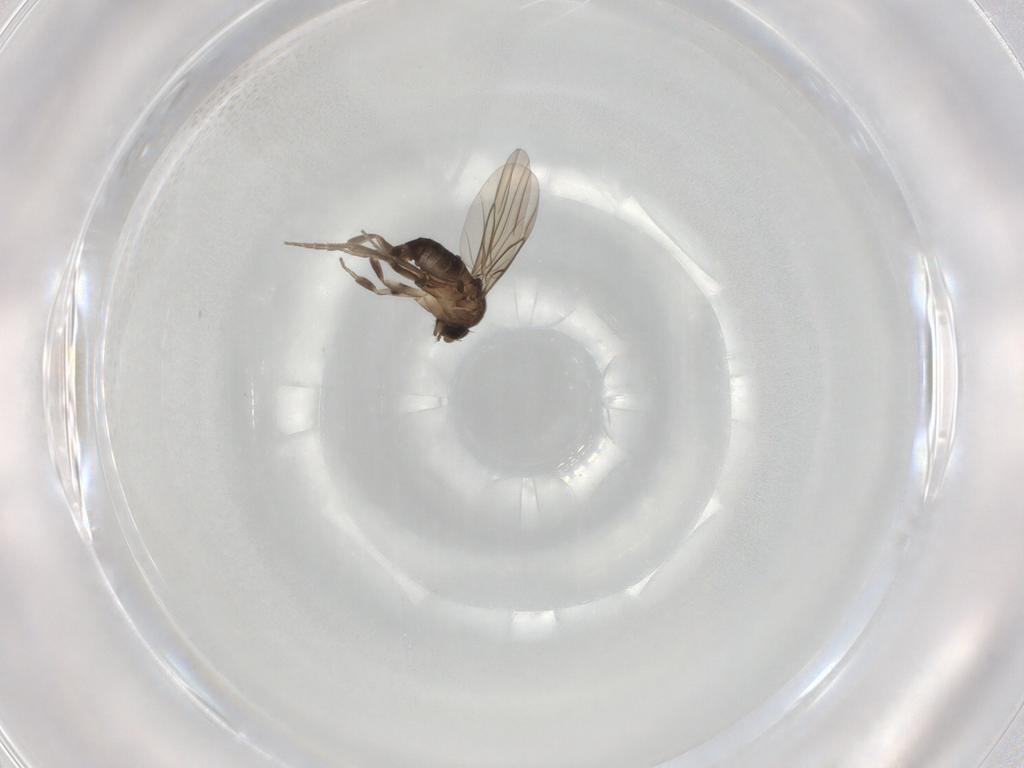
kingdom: Animalia
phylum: Arthropoda
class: Insecta
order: Diptera
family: Phoridae
